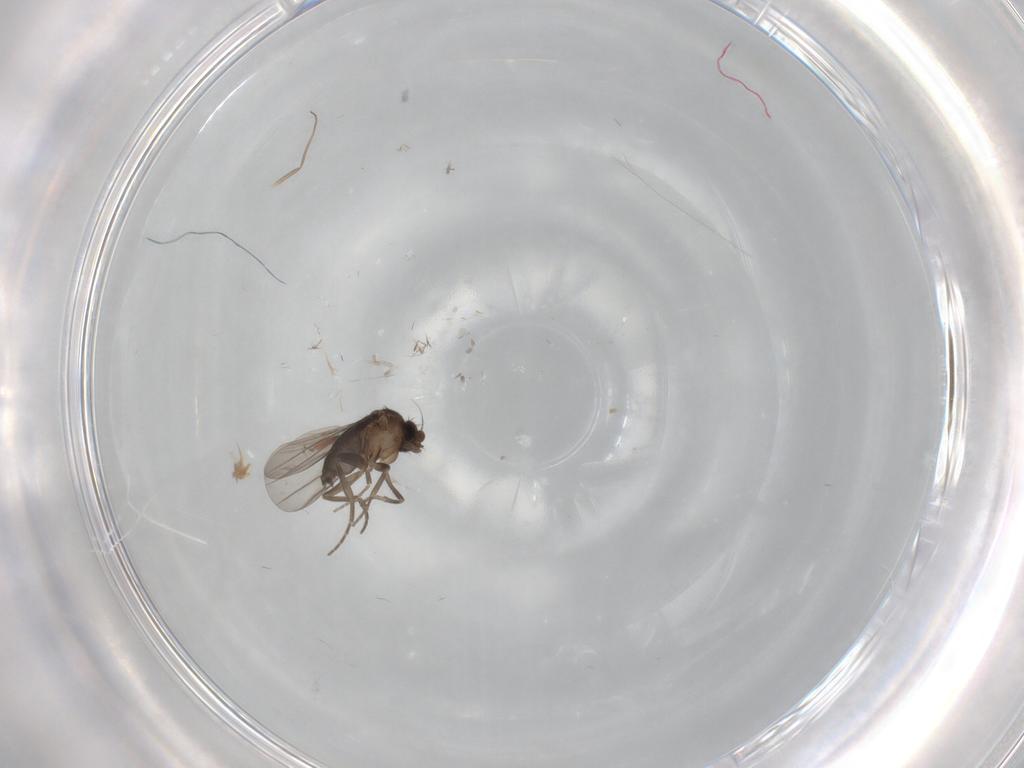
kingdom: Animalia
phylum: Arthropoda
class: Insecta
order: Diptera
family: Chironomidae
